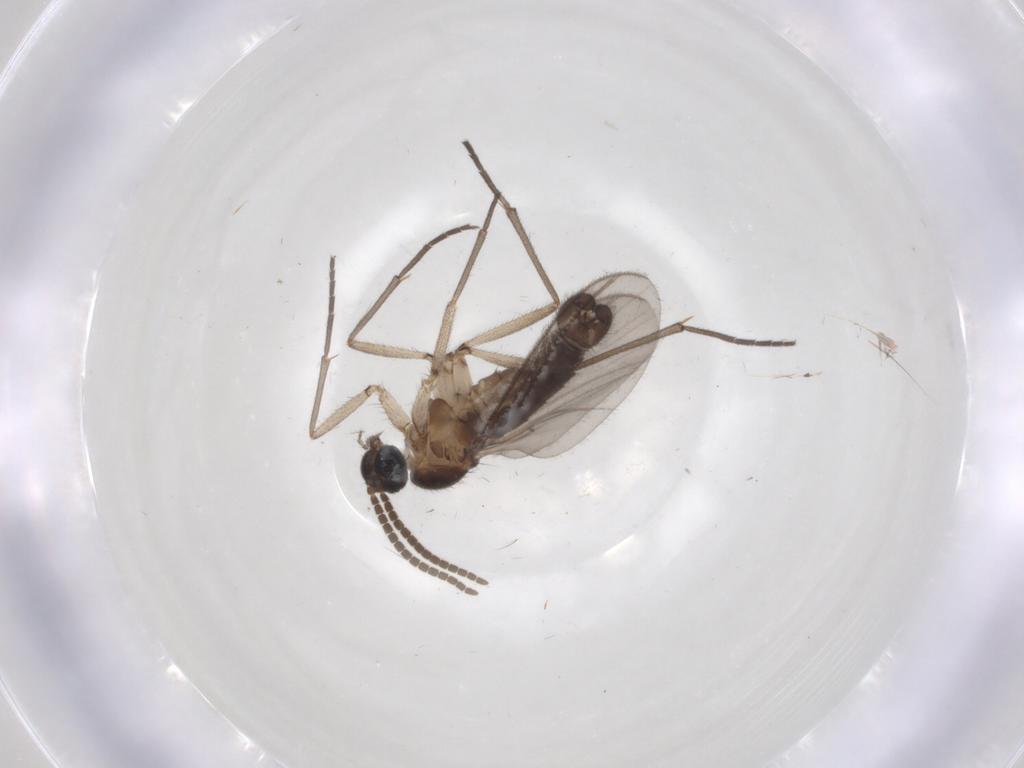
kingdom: Animalia
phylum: Arthropoda
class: Insecta
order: Diptera
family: Sciaridae
